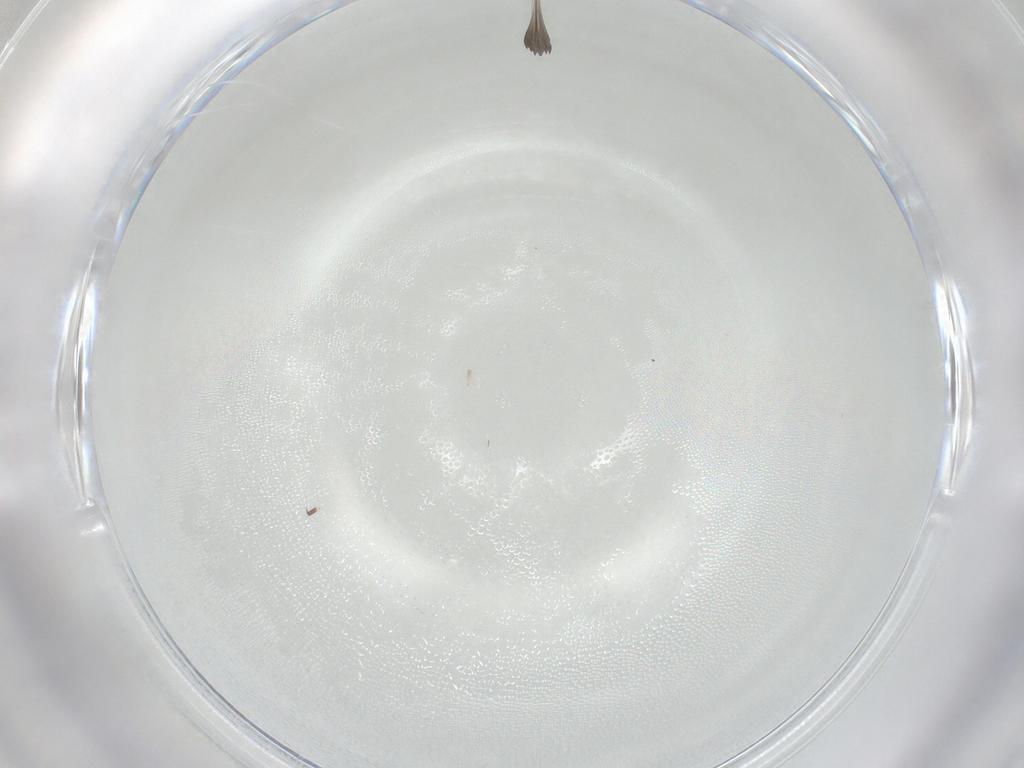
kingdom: Animalia
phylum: Arthropoda
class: Insecta
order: Diptera
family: Cecidomyiidae
